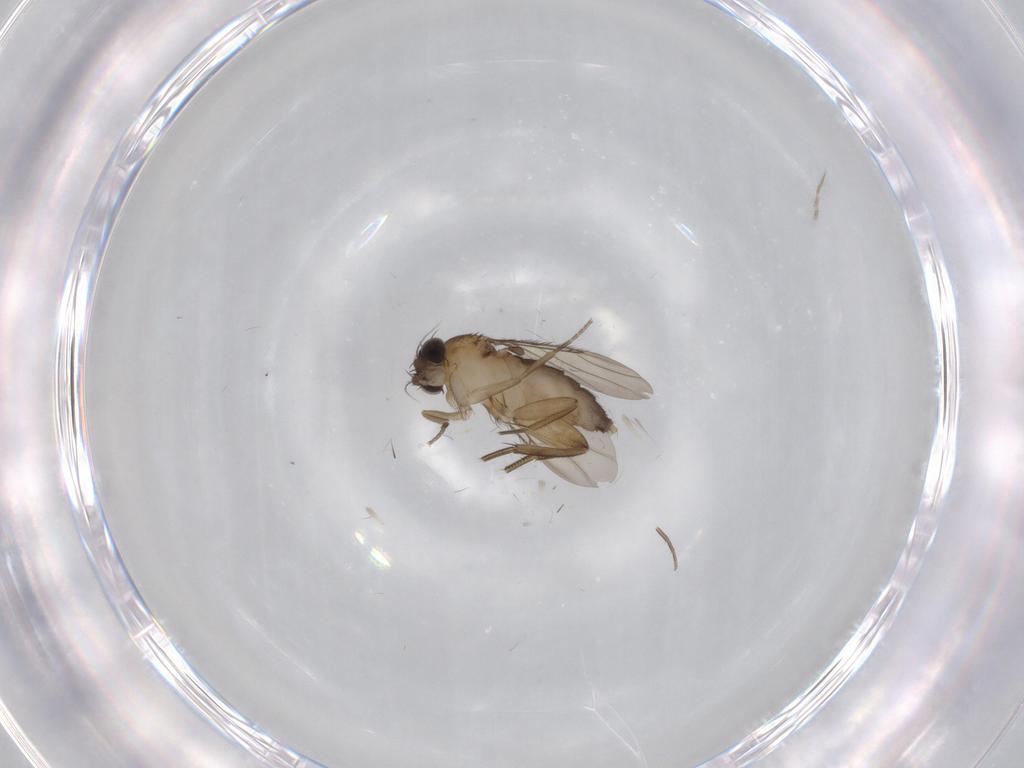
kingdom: Animalia
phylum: Arthropoda
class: Insecta
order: Diptera
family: Phoridae
